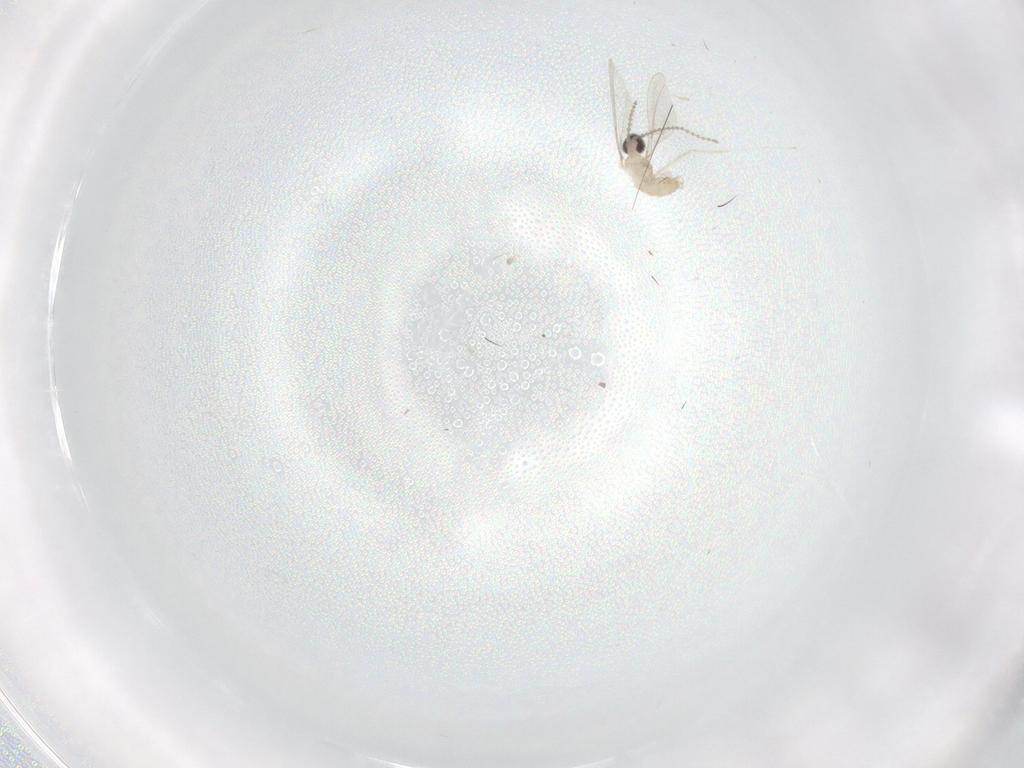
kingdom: Animalia
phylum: Arthropoda
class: Insecta
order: Diptera
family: Cecidomyiidae
